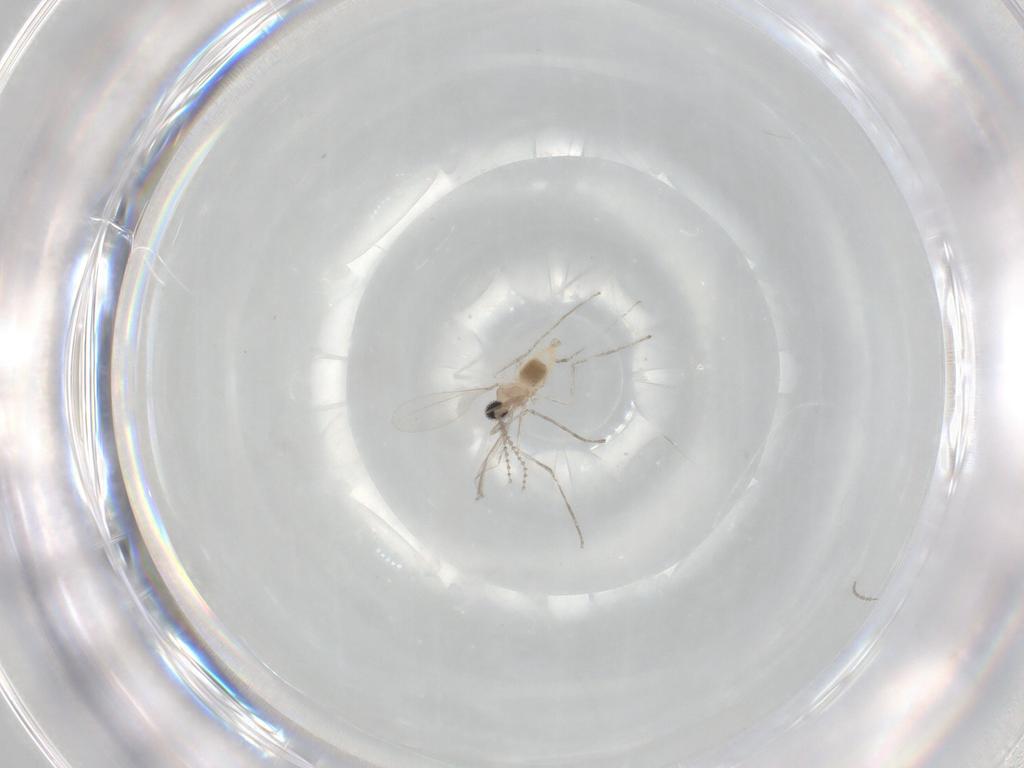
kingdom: Animalia
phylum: Arthropoda
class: Insecta
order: Diptera
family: Cecidomyiidae
